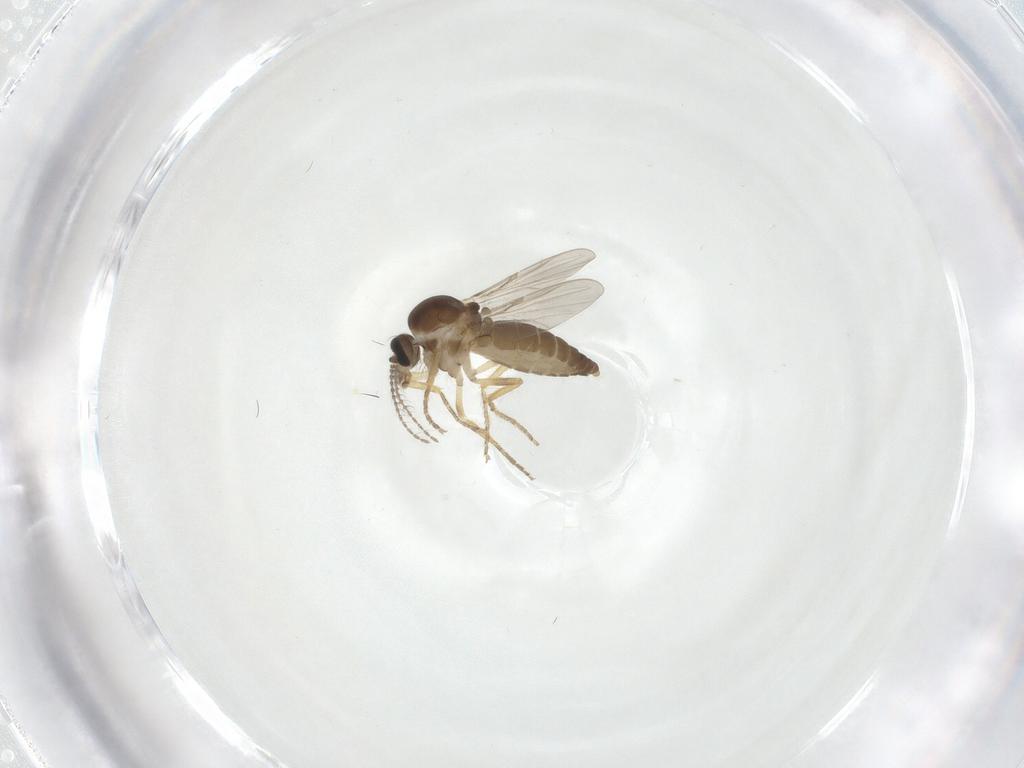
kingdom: Animalia
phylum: Arthropoda
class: Insecta
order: Diptera
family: Ceratopogonidae
